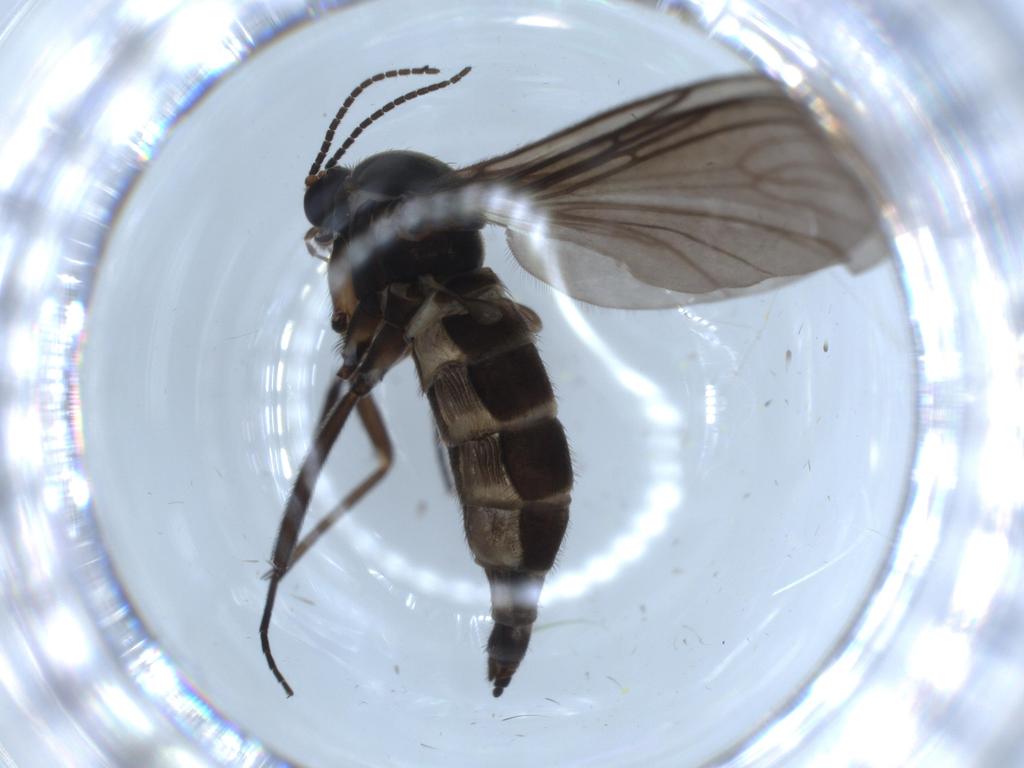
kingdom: Animalia
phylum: Arthropoda
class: Insecta
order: Diptera
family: Sciaridae
